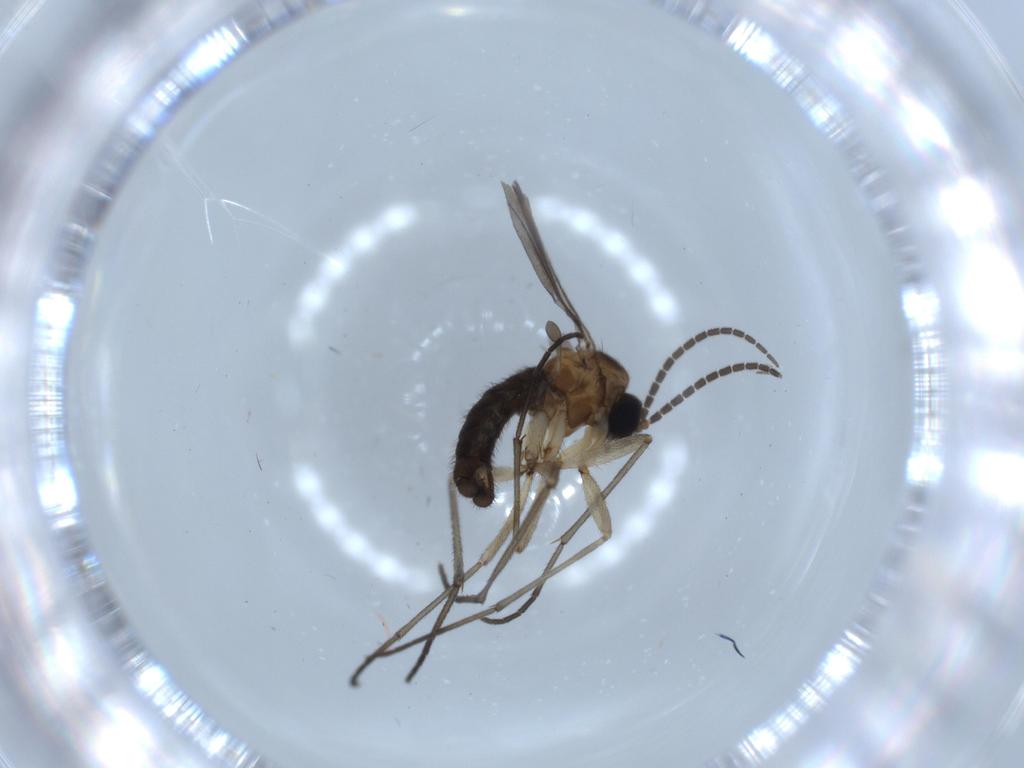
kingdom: Animalia
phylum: Arthropoda
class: Insecta
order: Diptera
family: Sciaridae
